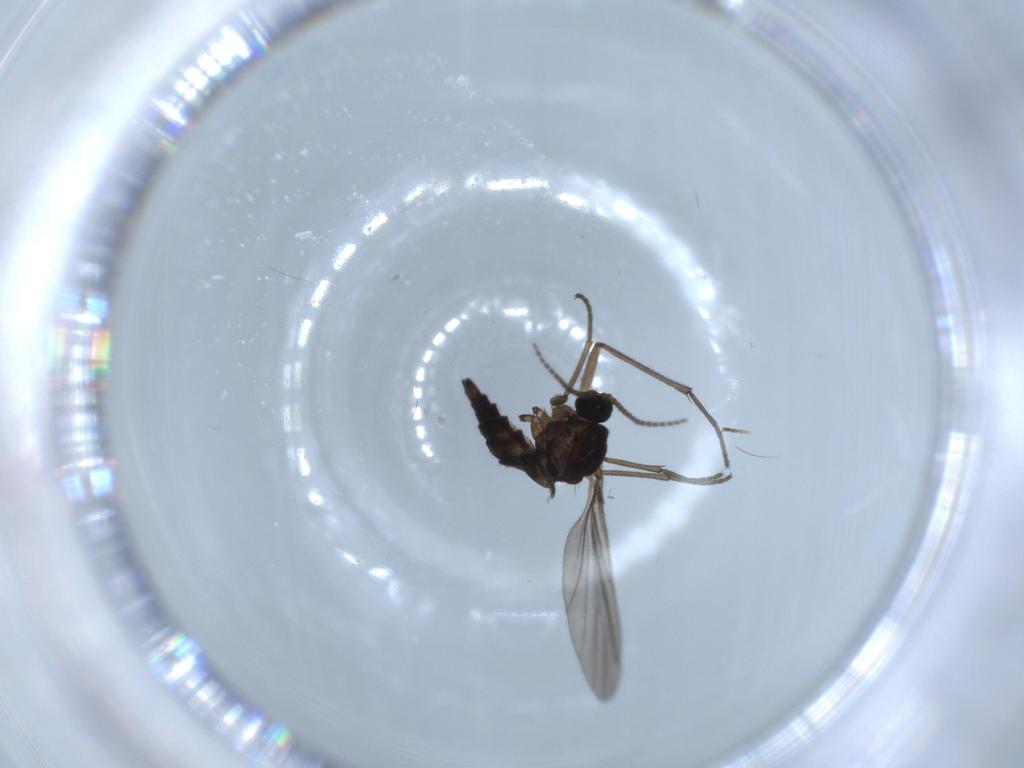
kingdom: Animalia
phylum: Arthropoda
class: Insecta
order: Diptera
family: Sciaridae
